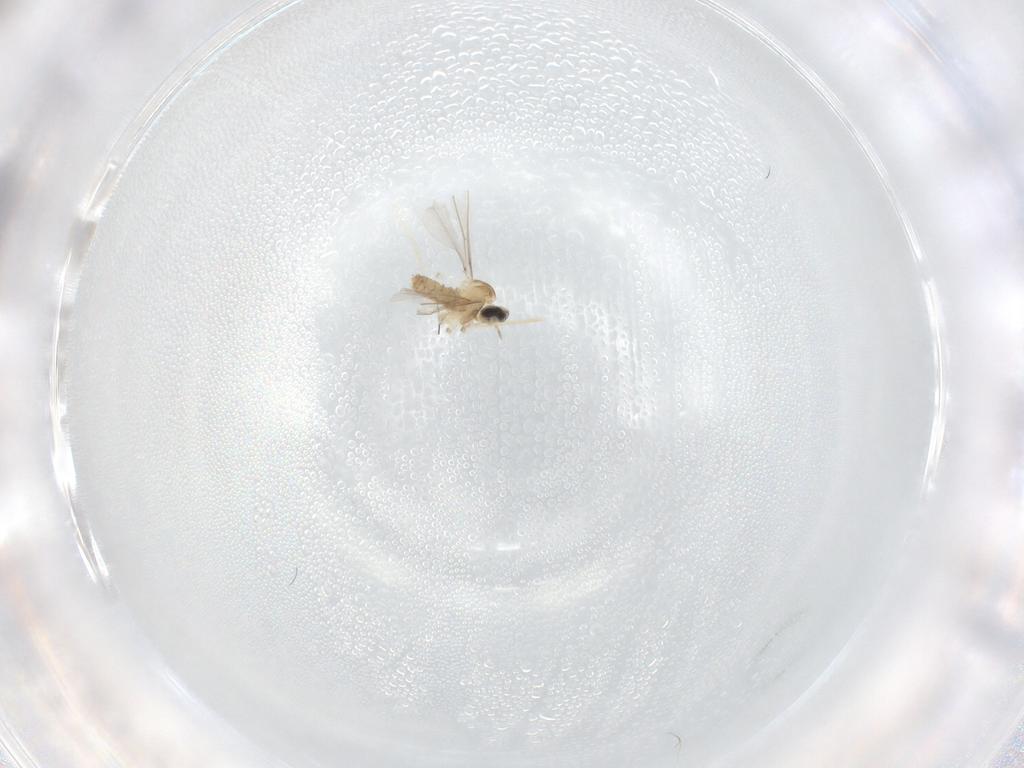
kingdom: Animalia
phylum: Arthropoda
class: Insecta
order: Diptera
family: Cecidomyiidae
